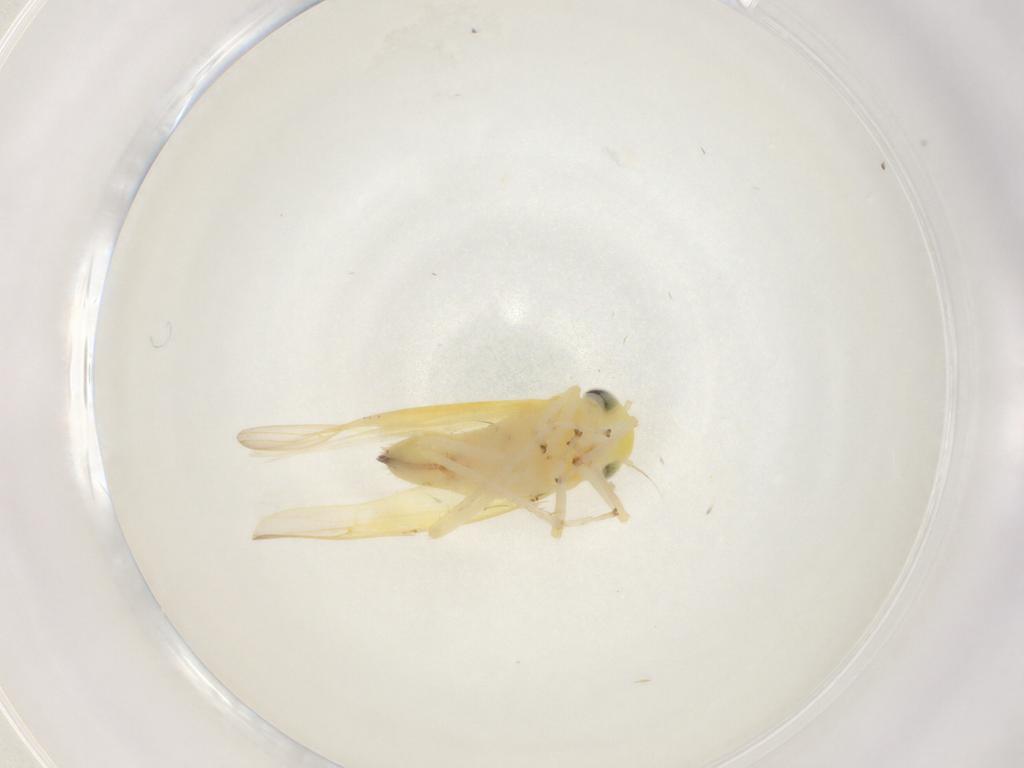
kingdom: Animalia
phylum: Arthropoda
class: Insecta
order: Hemiptera
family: Cicadellidae
